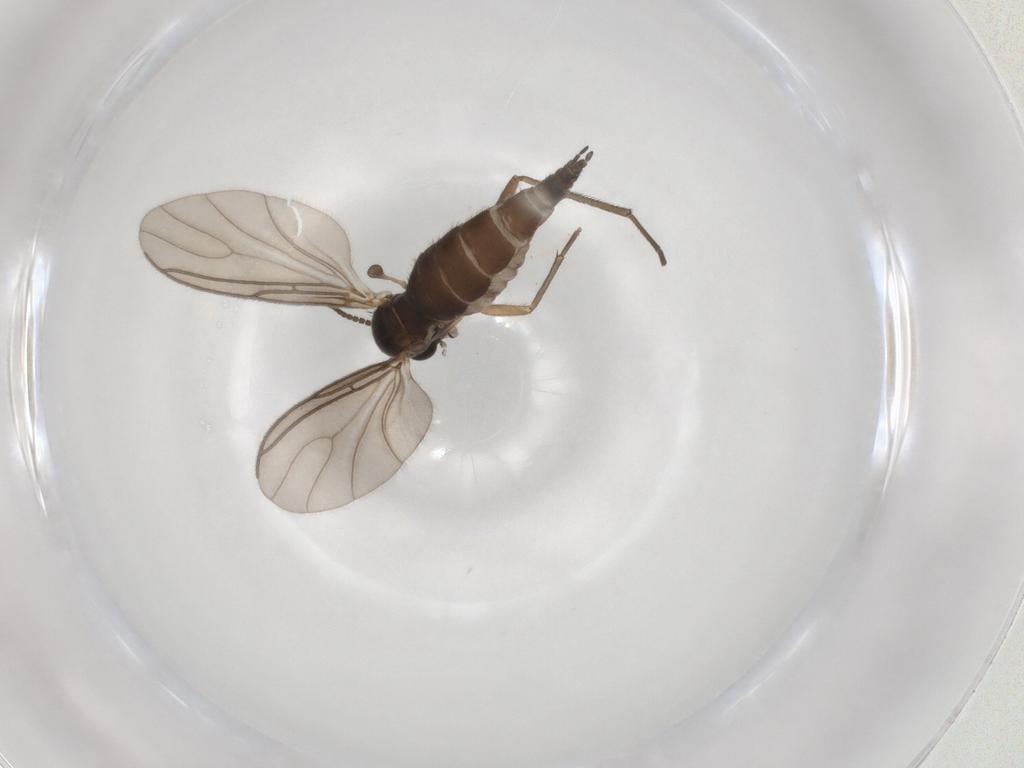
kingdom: Animalia
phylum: Arthropoda
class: Insecta
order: Diptera
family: Sciaridae
